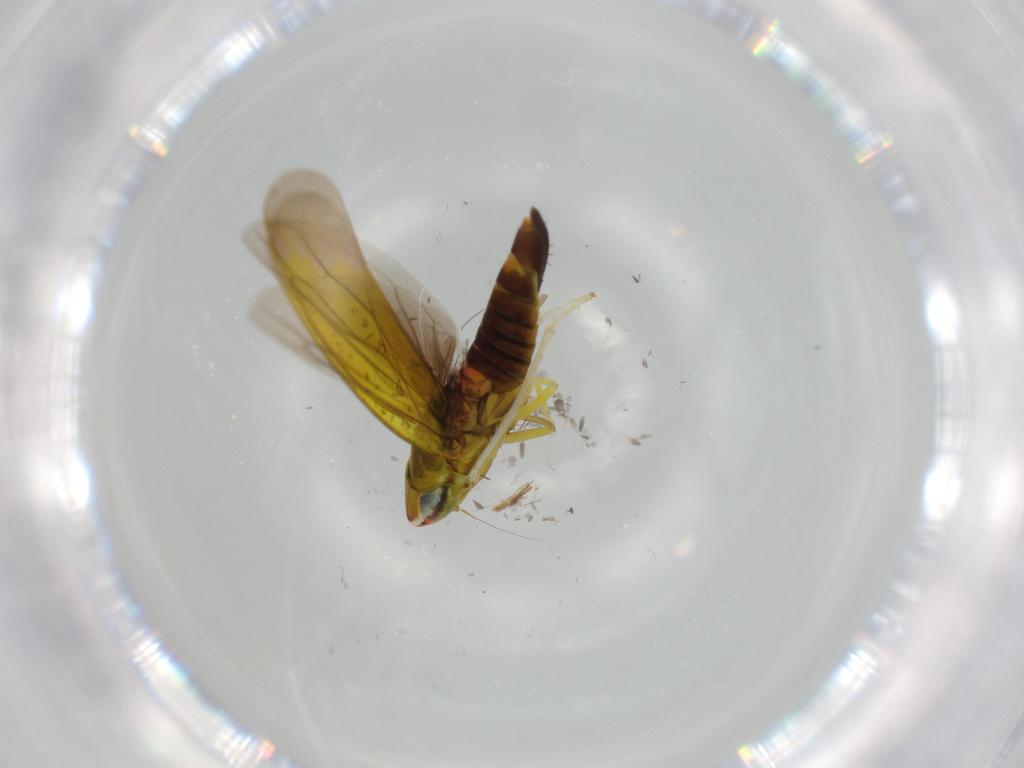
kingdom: Animalia
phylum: Arthropoda
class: Insecta
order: Hemiptera
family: Cicadellidae
